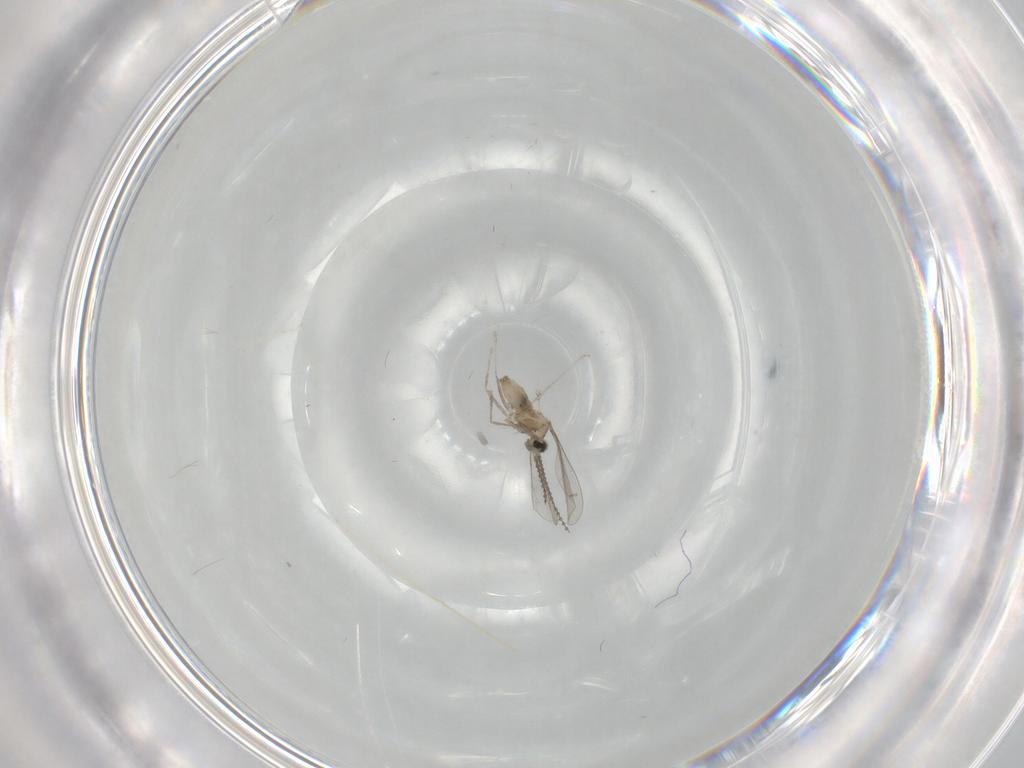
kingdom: Animalia
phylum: Arthropoda
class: Insecta
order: Diptera
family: Cecidomyiidae
